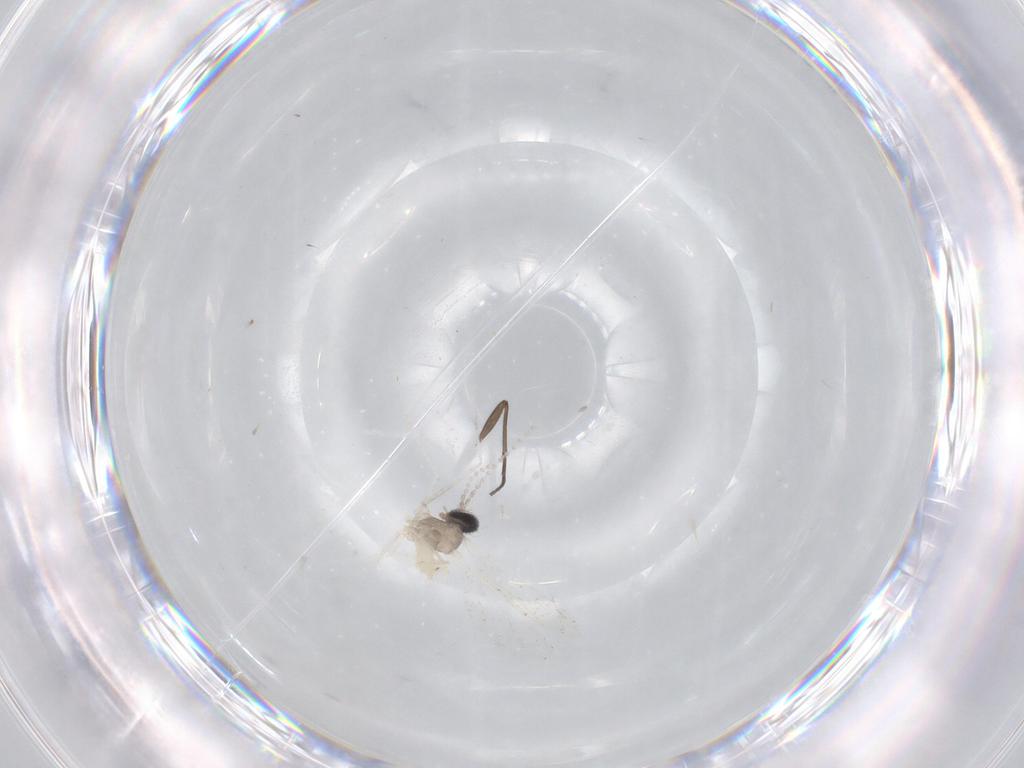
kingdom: Animalia
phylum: Arthropoda
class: Insecta
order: Diptera
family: Cecidomyiidae
